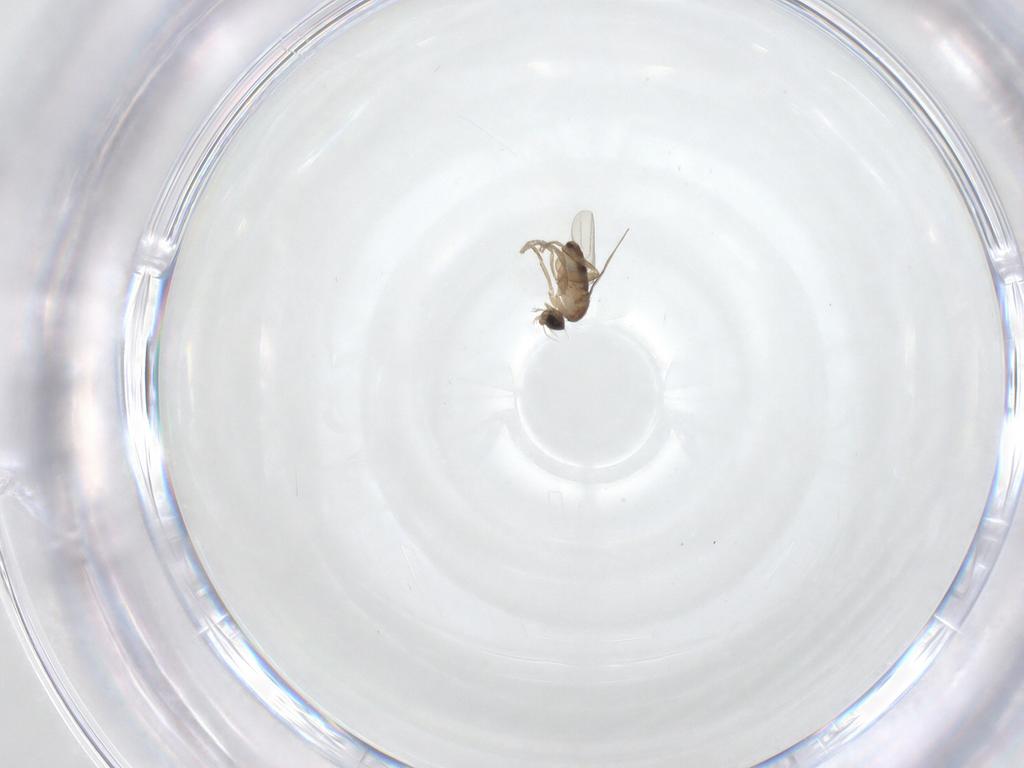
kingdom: Animalia
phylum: Arthropoda
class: Insecta
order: Diptera
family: Phoridae
